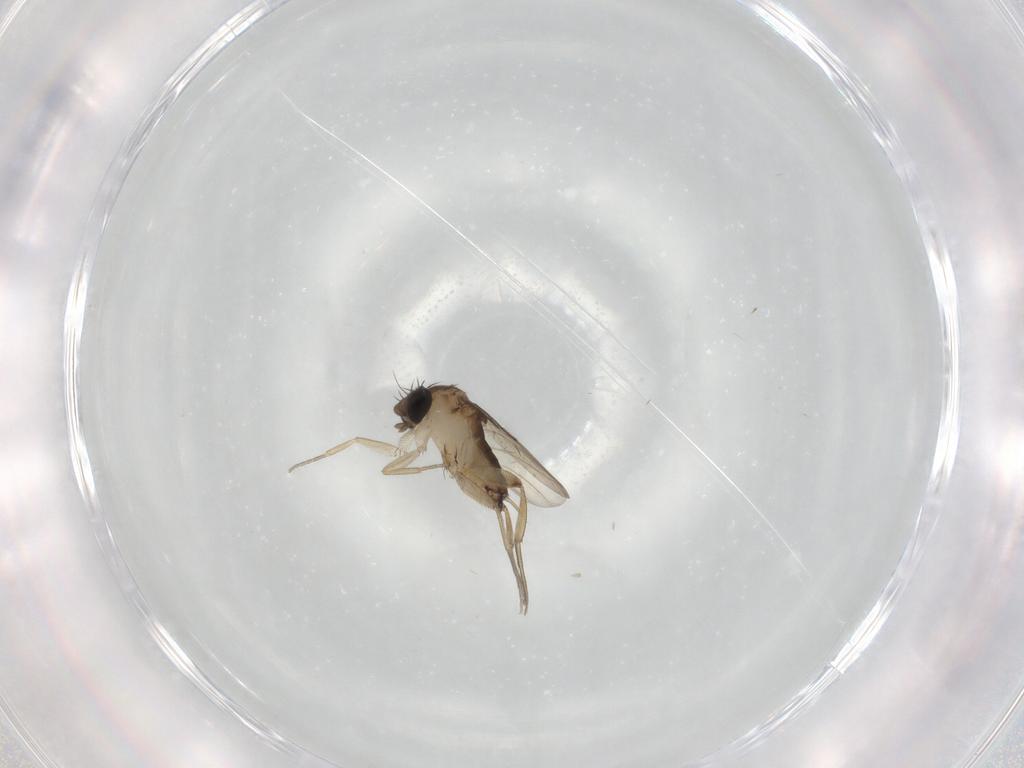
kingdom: Animalia
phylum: Arthropoda
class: Insecta
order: Diptera
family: Phoridae
